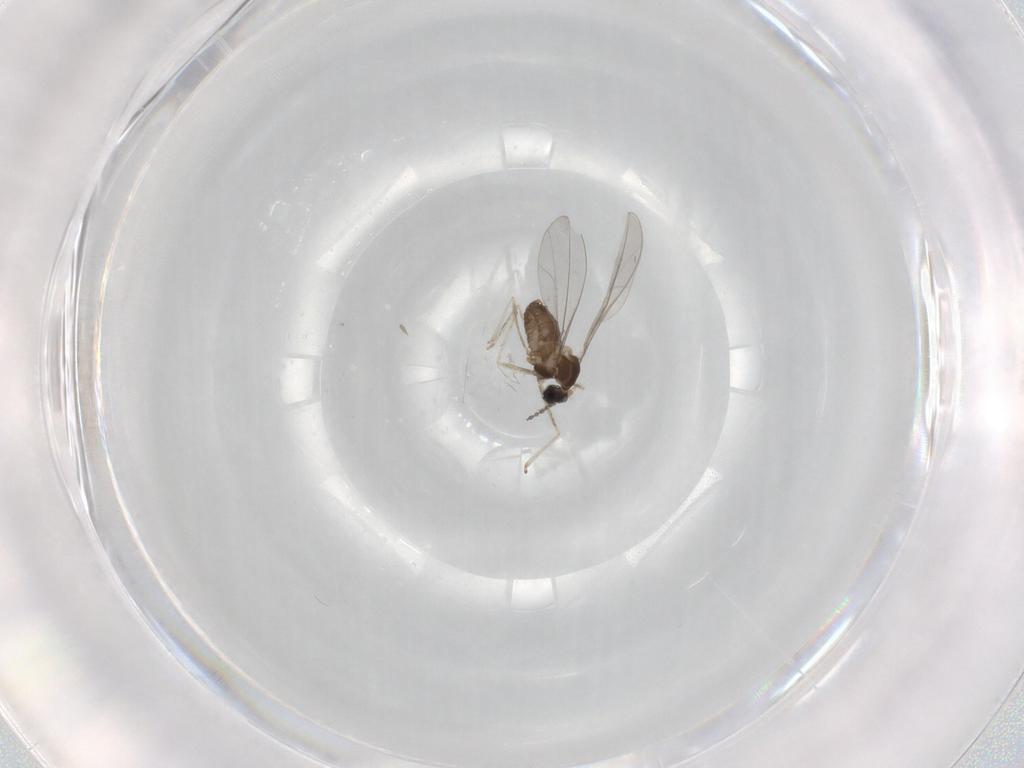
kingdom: Animalia
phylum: Arthropoda
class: Insecta
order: Diptera
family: Cecidomyiidae
